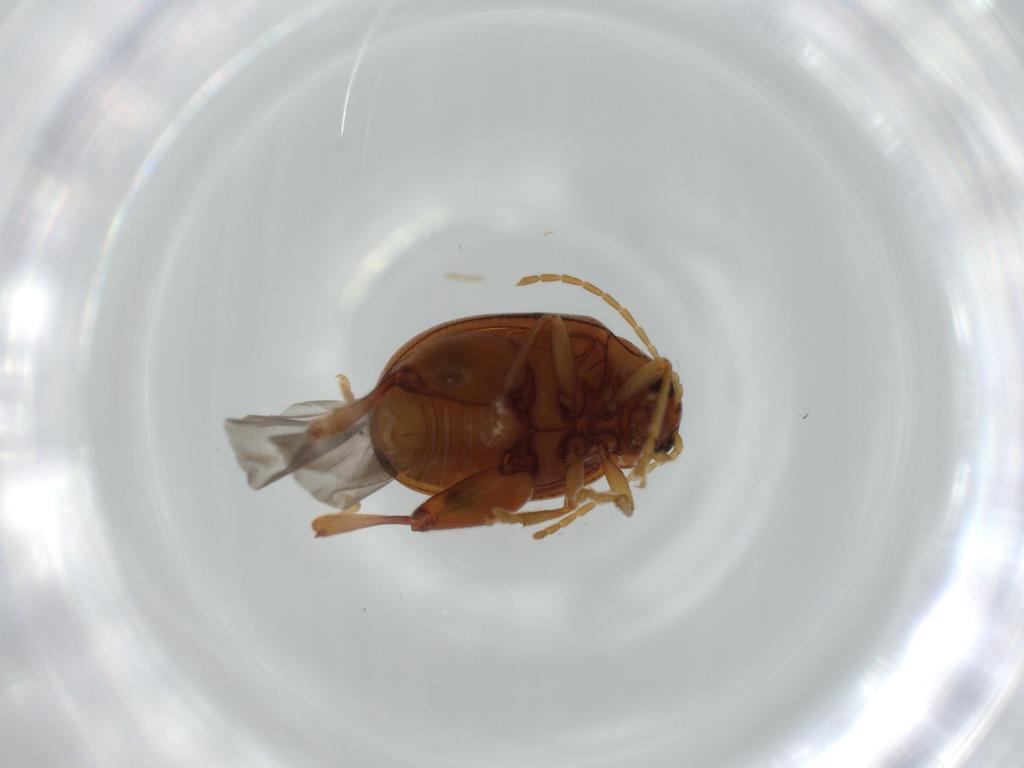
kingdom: Animalia
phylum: Arthropoda
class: Insecta
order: Coleoptera
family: Chrysomelidae
